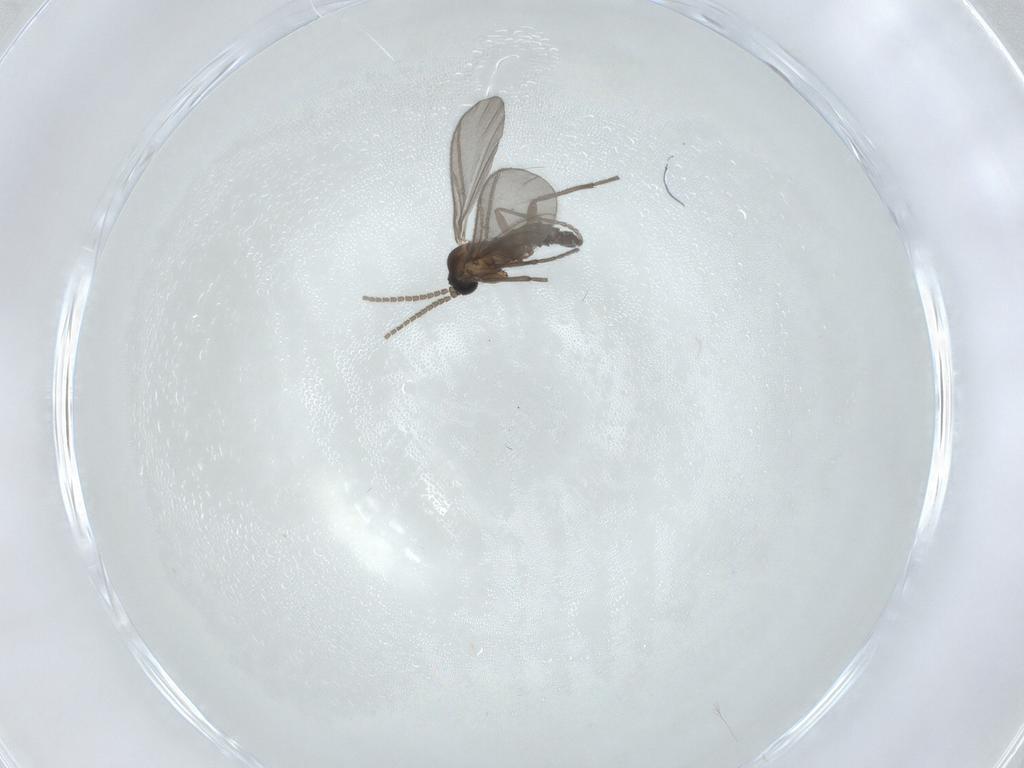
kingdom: Animalia
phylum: Arthropoda
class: Insecta
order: Diptera
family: Sciaridae
